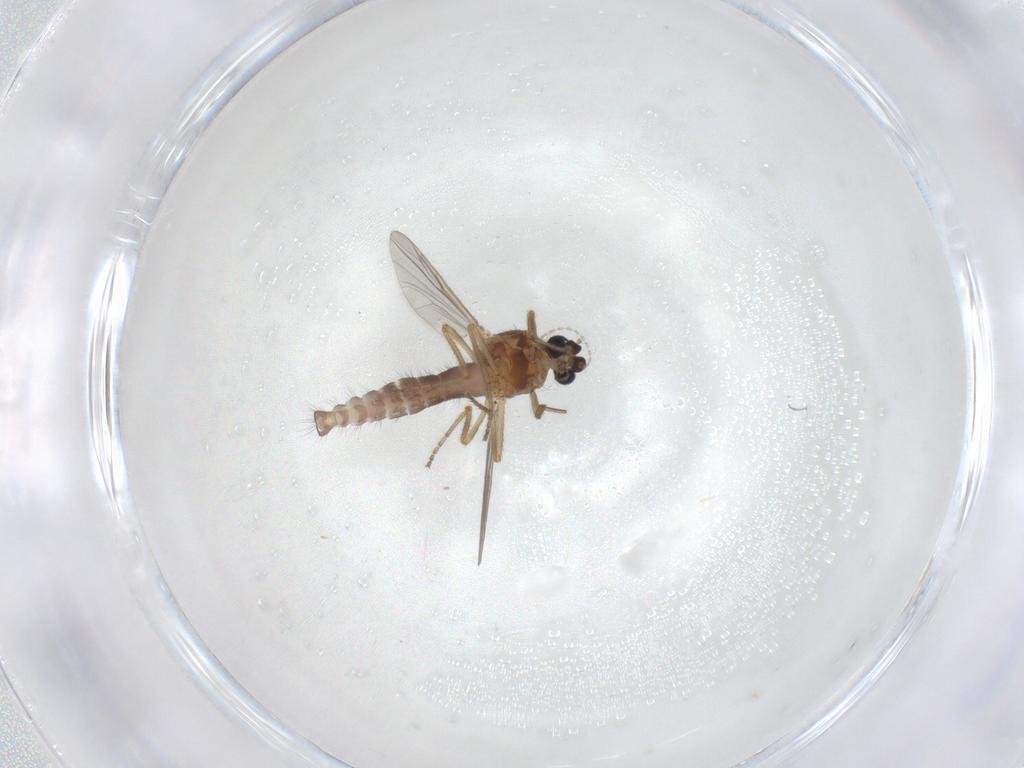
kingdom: Animalia
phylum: Arthropoda
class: Insecta
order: Diptera
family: Ceratopogonidae
